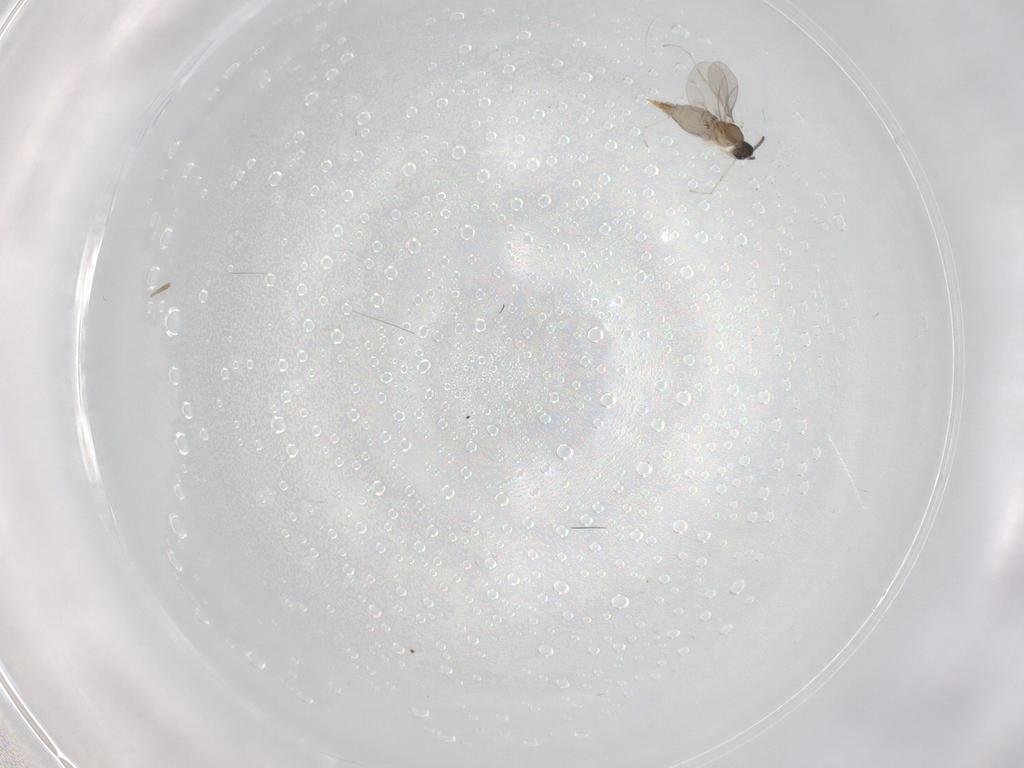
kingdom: Animalia
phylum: Arthropoda
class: Insecta
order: Diptera
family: Cecidomyiidae
